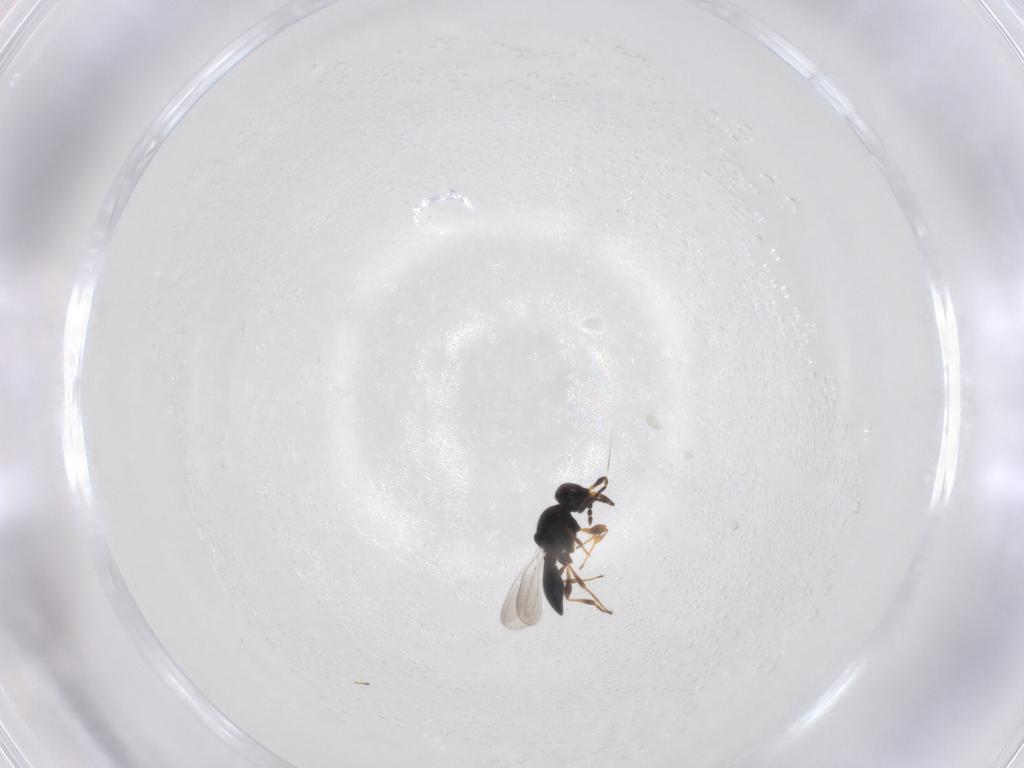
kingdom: Animalia
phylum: Arthropoda
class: Insecta
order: Hymenoptera
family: Platygastridae
